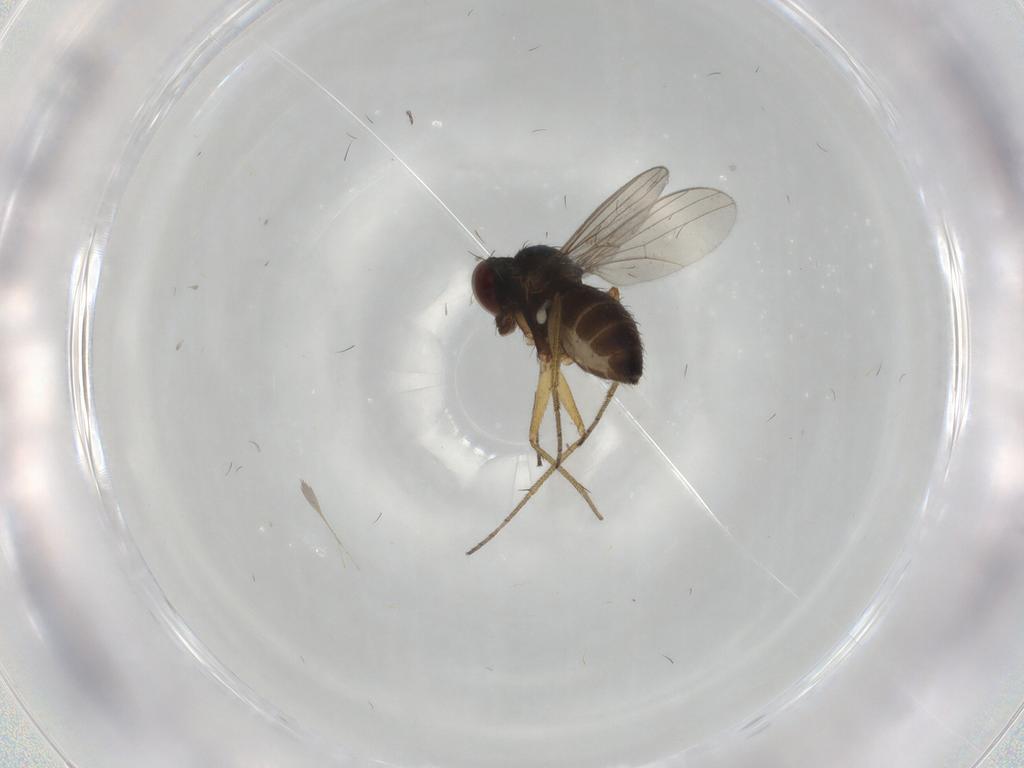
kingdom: Animalia
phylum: Arthropoda
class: Insecta
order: Diptera
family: Dolichopodidae
